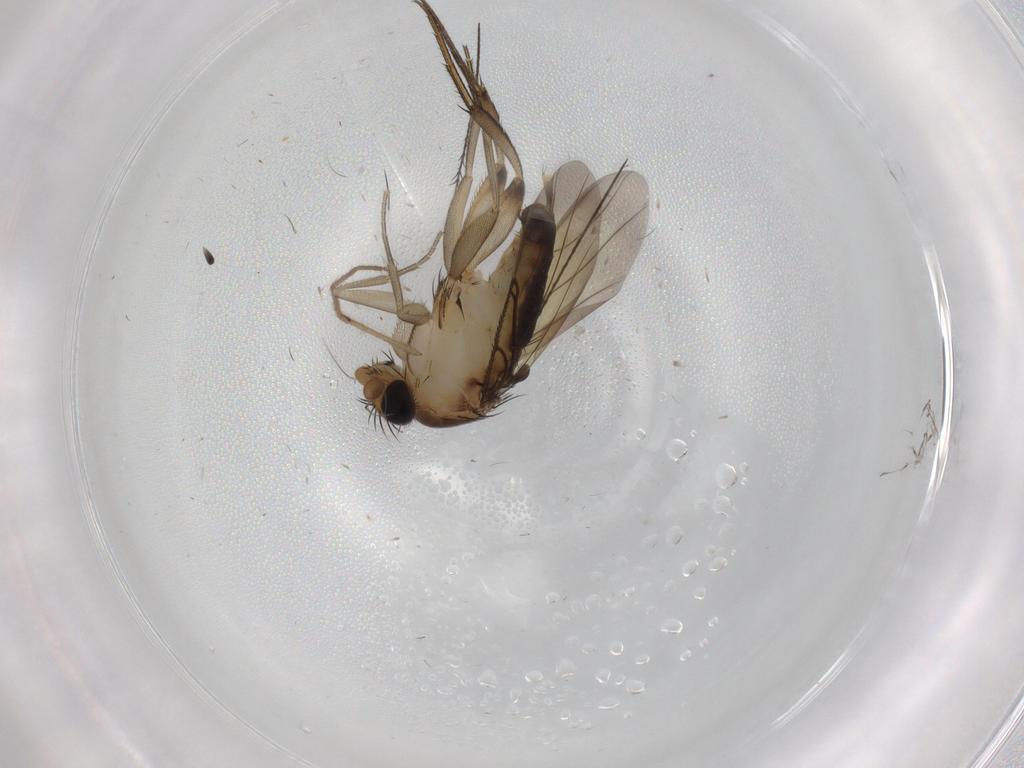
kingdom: Animalia
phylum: Arthropoda
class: Insecta
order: Diptera
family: Phoridae
